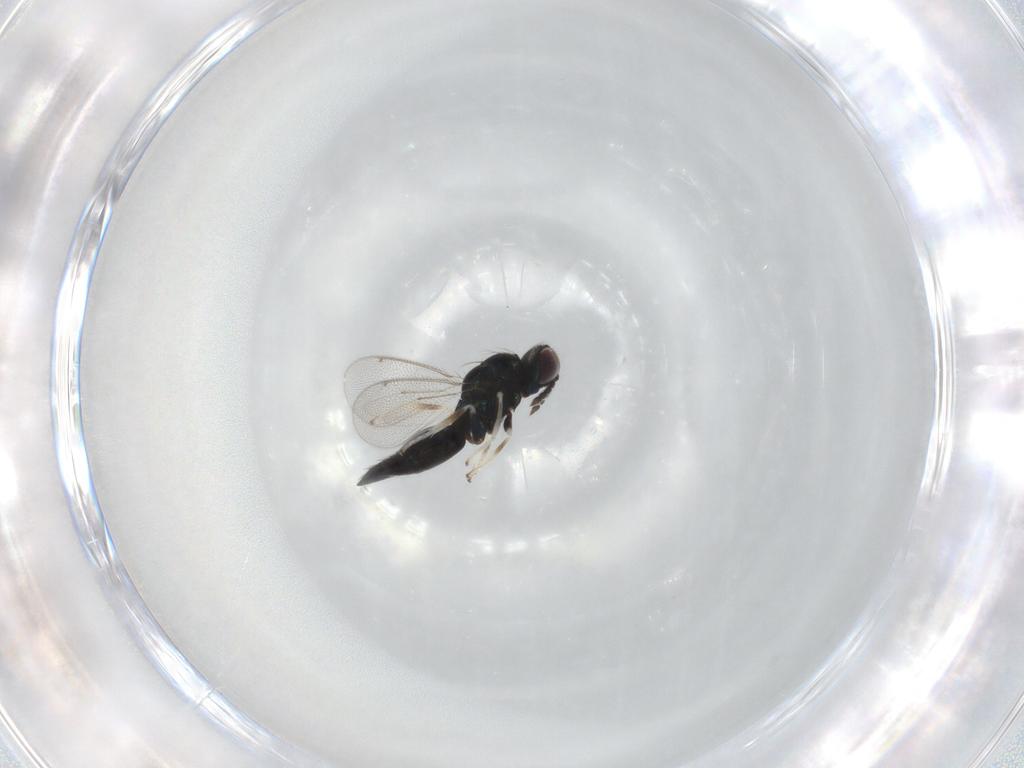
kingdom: Animalia
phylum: Arthropoda
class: Insecta
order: Hymenoptera
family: Eulophidae
